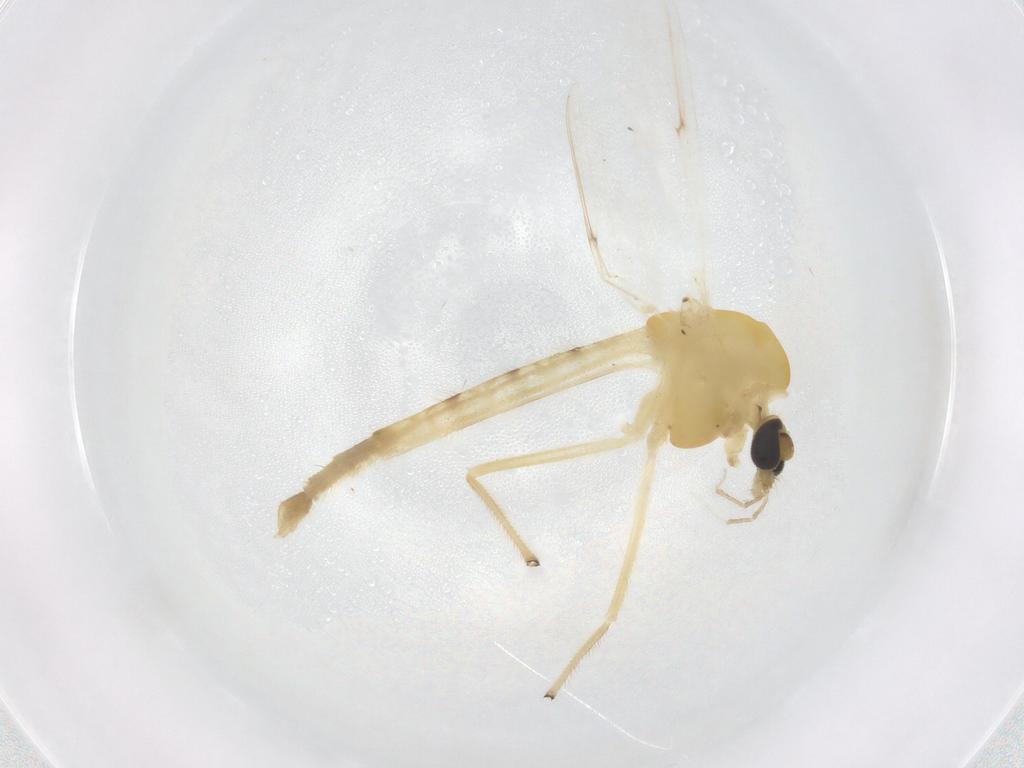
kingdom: Animalia
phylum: Arthropoda
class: Insecta
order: Diptera
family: Chironomidae
